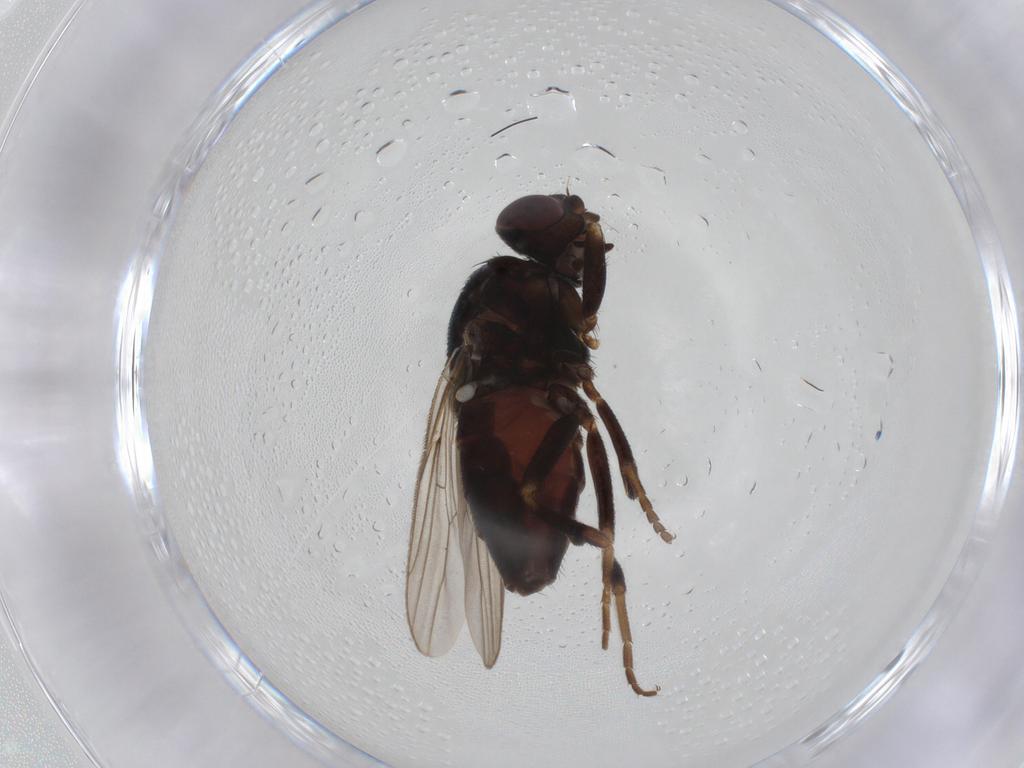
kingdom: Animalia
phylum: Arthropoda
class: Insecta
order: Diptera
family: Chloropidae
